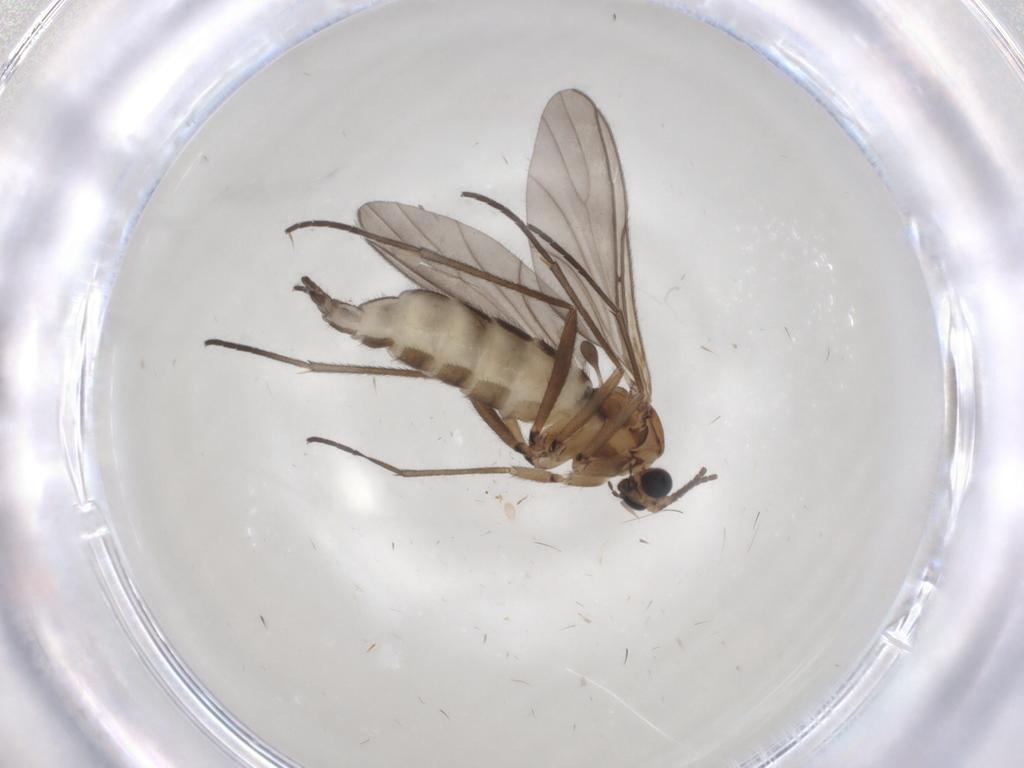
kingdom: Animalia
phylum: Arthropoda
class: Insecta
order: Diptera
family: Sciaridae
